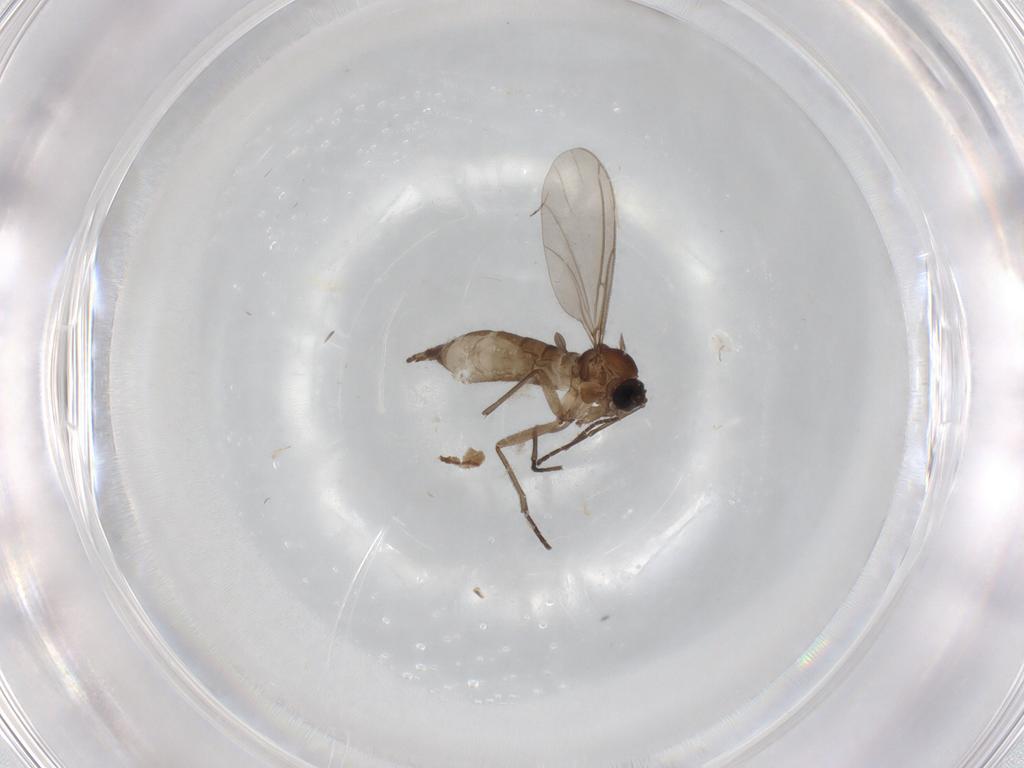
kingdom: Animalia
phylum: Arthropoda
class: Insecta
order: Diptera
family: Sciaridae
